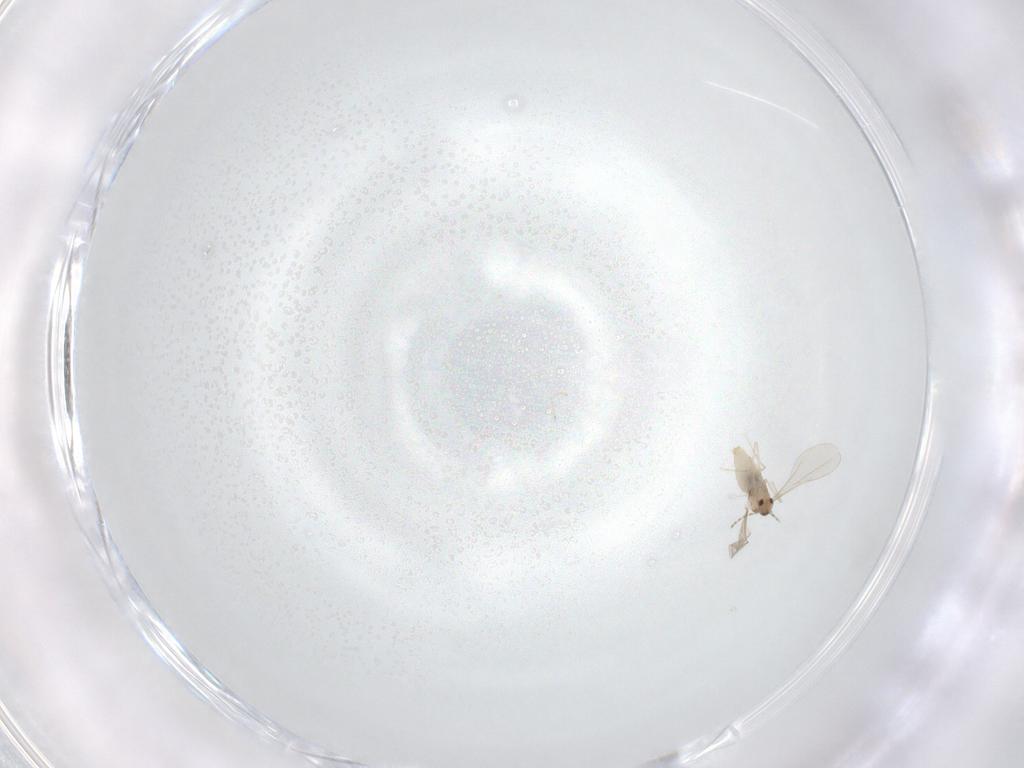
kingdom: Animalia
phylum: Arthropoda
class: Insecta
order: Diptera
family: Cecidomyiidae
